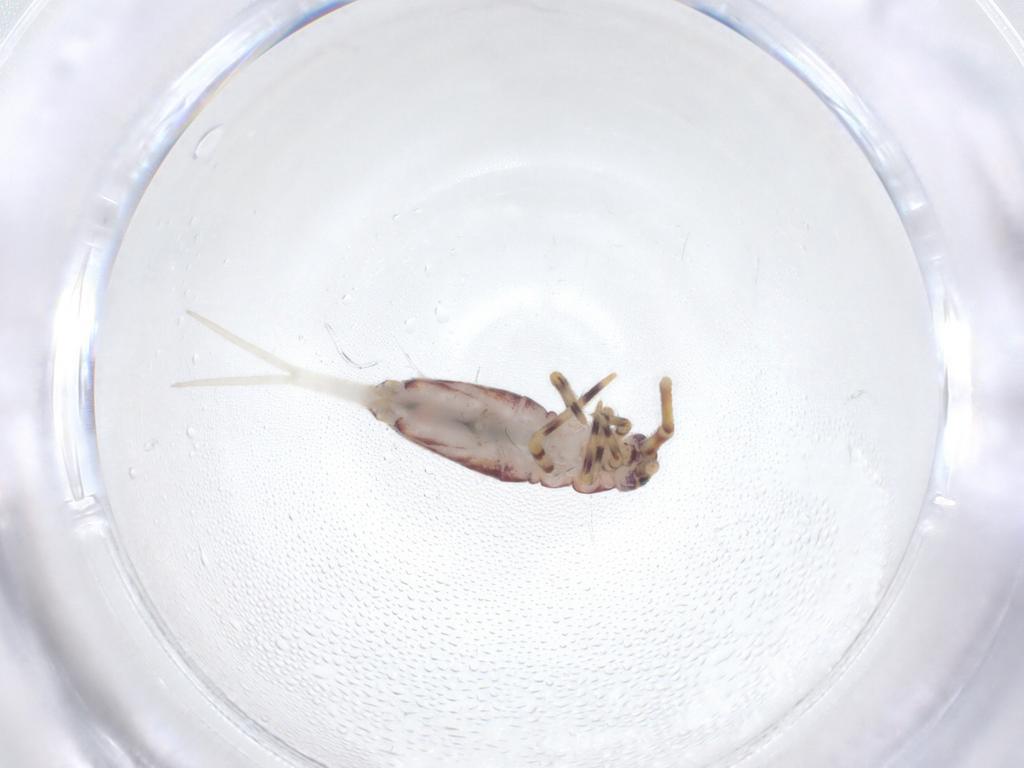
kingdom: Animalia
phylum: Arthropoda
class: Collembola
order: Entomobryomorpha
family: Entomobryidae
